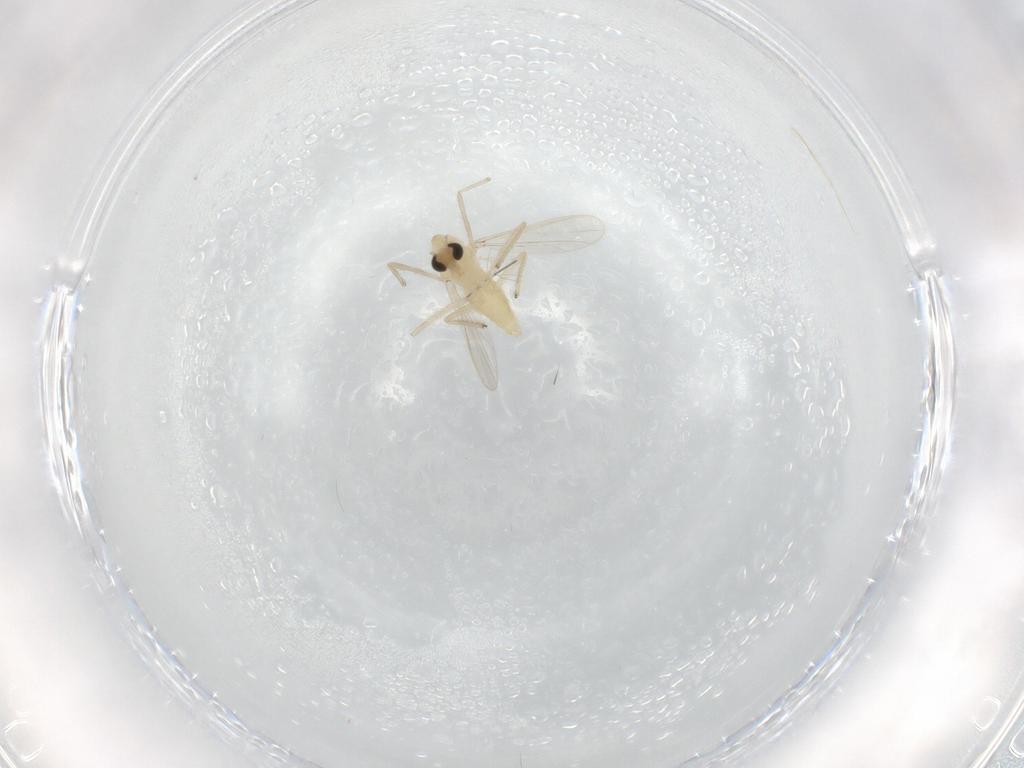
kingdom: Animalia
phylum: Arthropoda
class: Insecta
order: Diptera
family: Chironomidae
